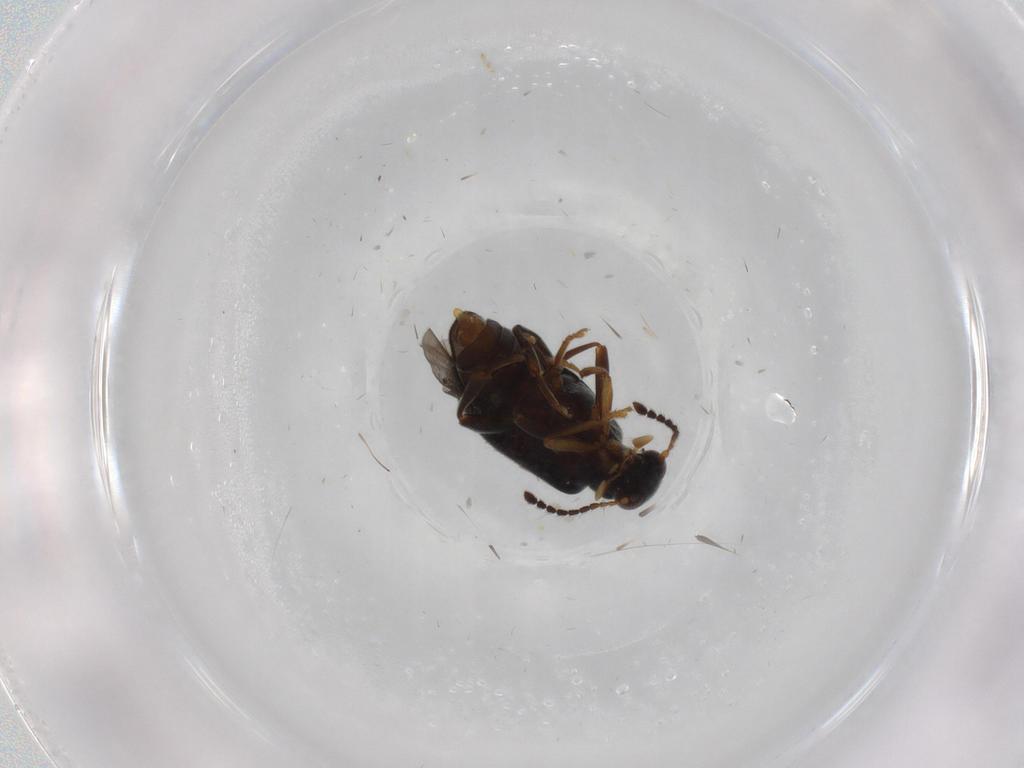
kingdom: Animalia
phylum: Arthropoda
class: Insecta
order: Coleoptera
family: Aderidae
